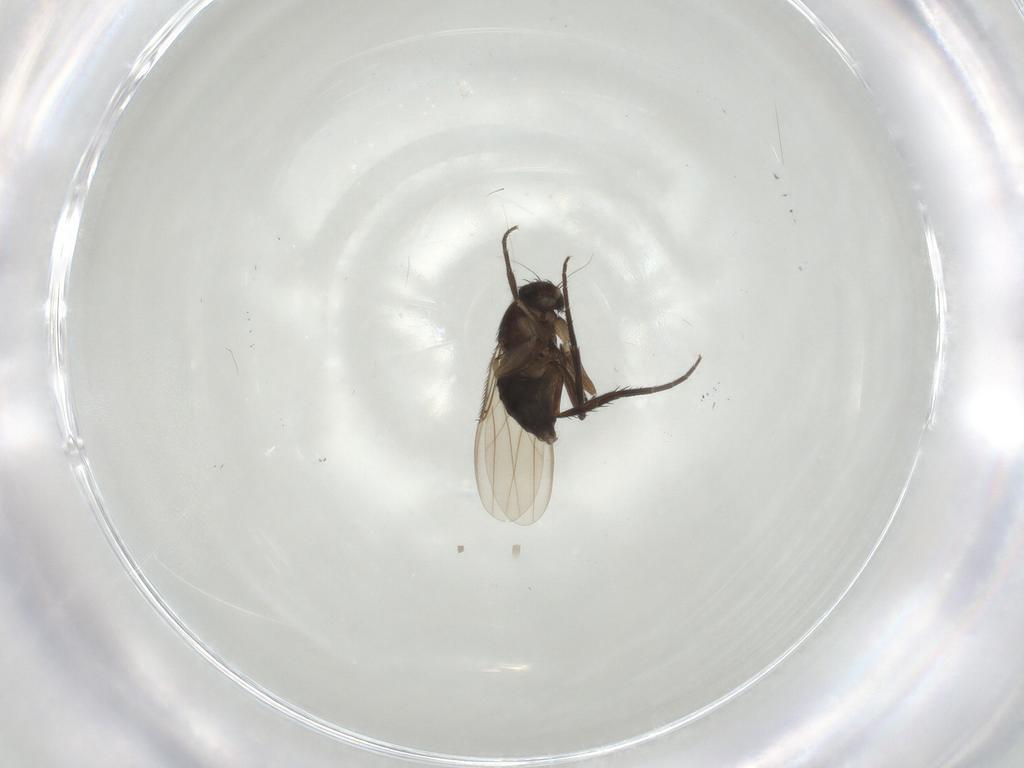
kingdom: Animalia
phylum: Arthropoda
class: Insecta
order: Diptera
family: Phoridae
